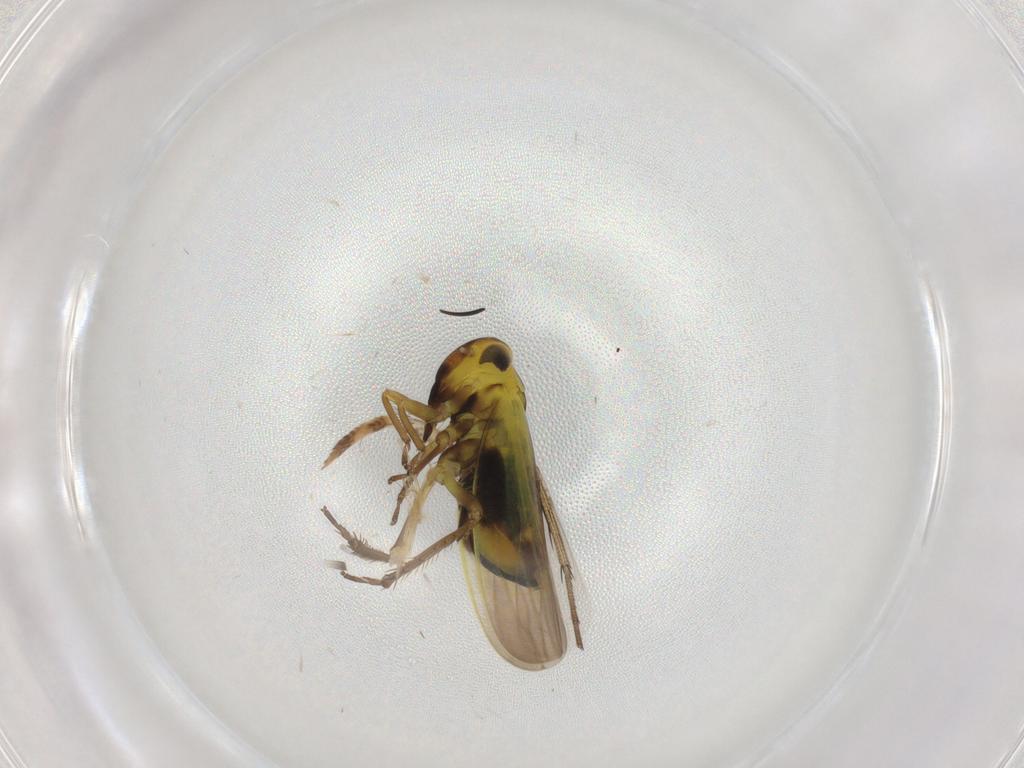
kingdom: Animalia
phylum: Arthropoda
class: Insecta
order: Hemiptera
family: Cicadellidae
